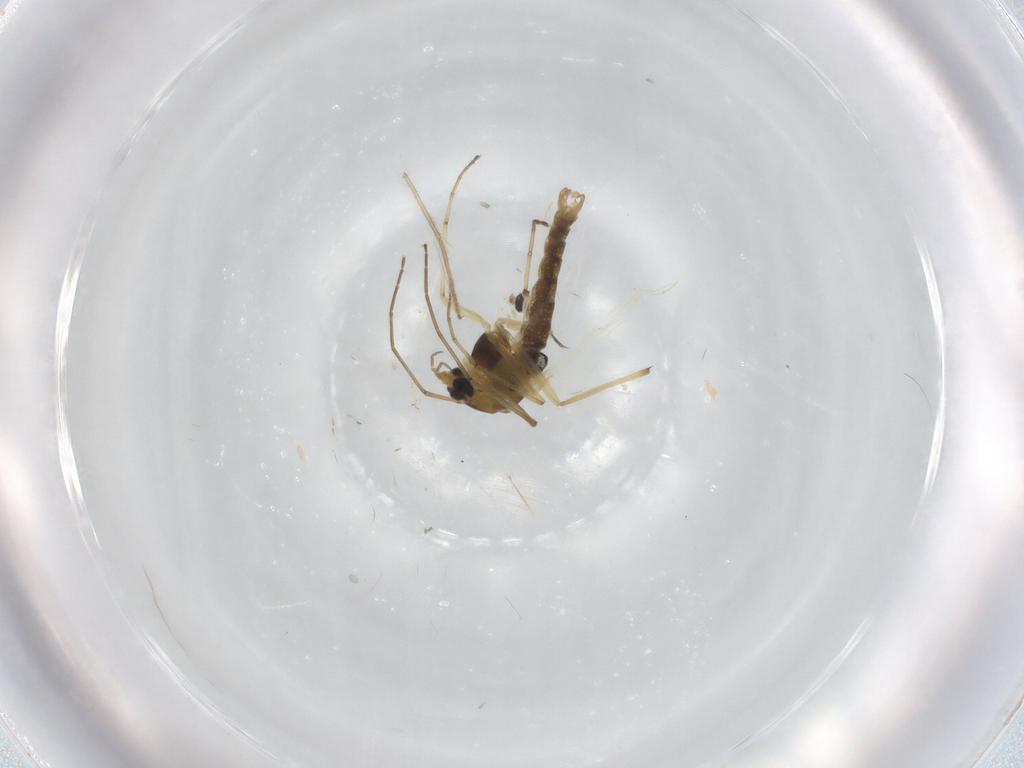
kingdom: Animalia
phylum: Arthropoda
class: Insecta
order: Diptera
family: Chironomidae
